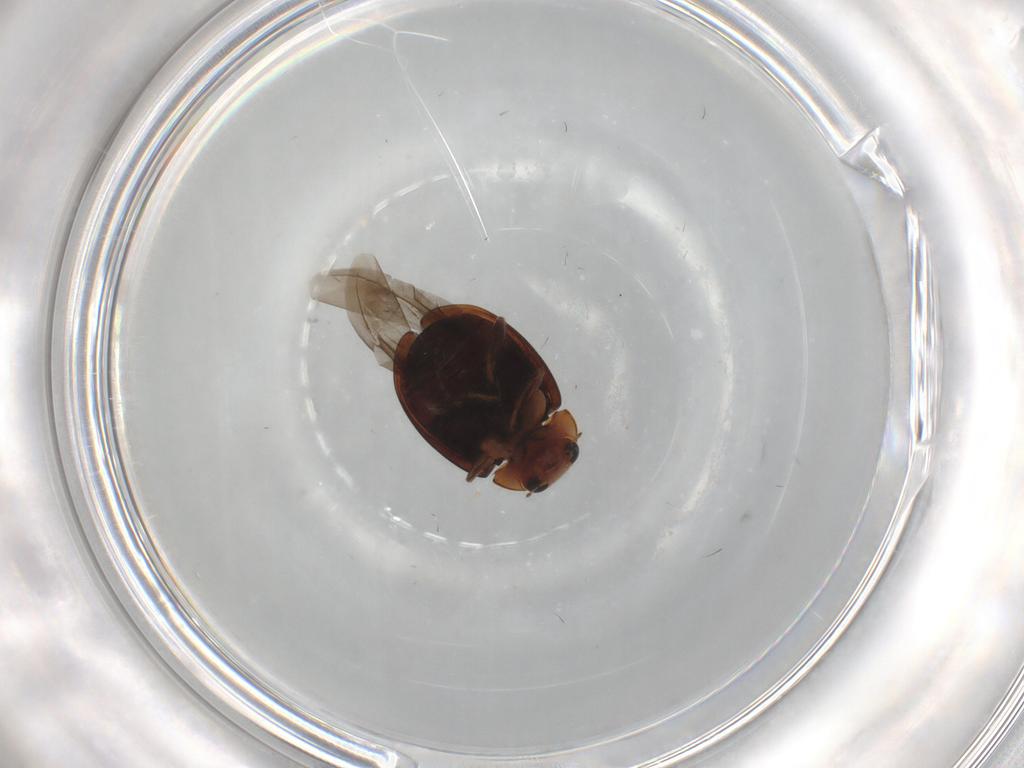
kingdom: Animalia
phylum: Arthropoda
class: Insecta
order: Coleoptera
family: Coccinellidae
